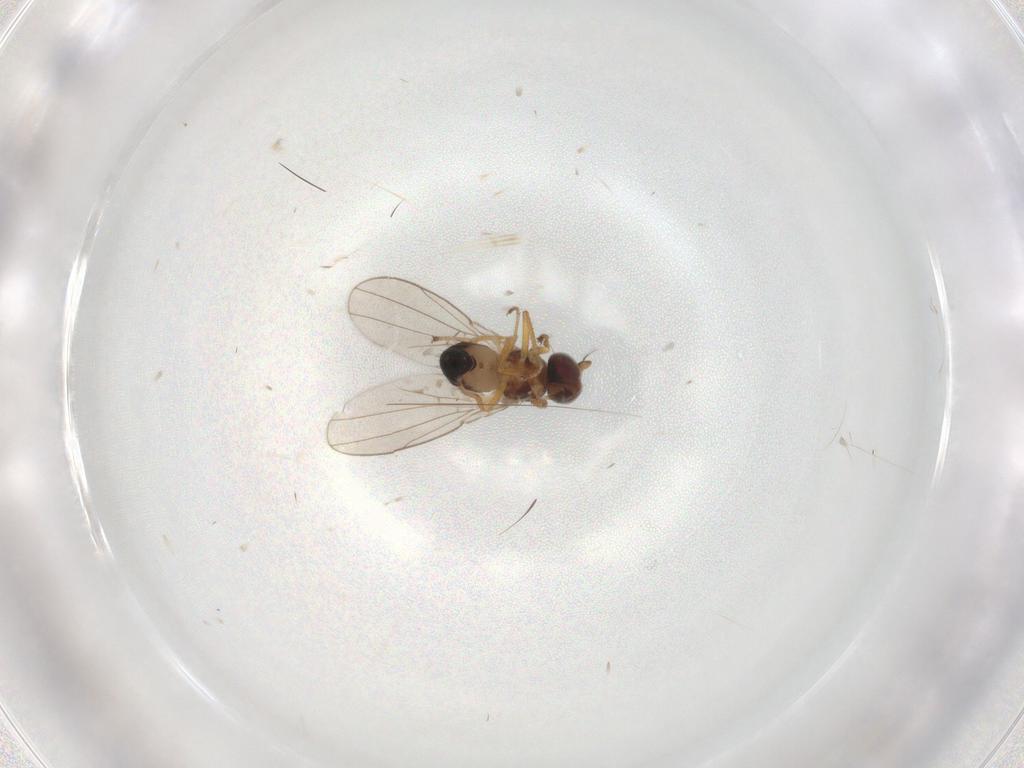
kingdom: Animalia
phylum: Arthropoda
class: Insecta
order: Diptera
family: Ephydridae
